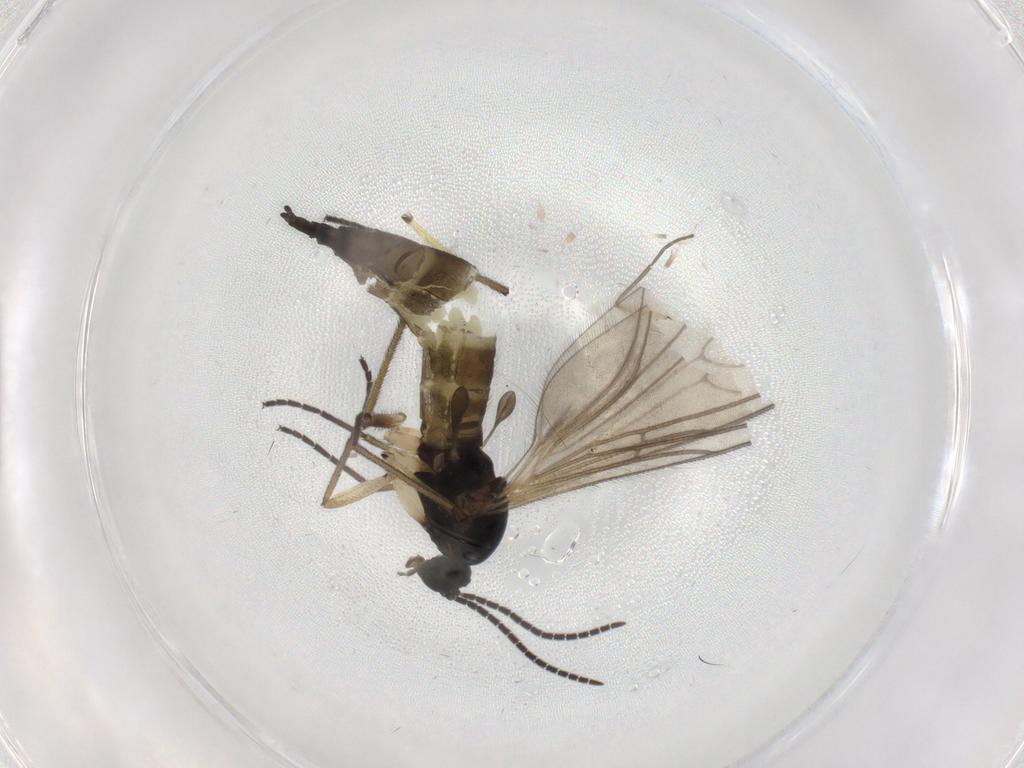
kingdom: Animalia
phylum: Arthropoda
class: Insecta
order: Diptera
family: Sciaridae
